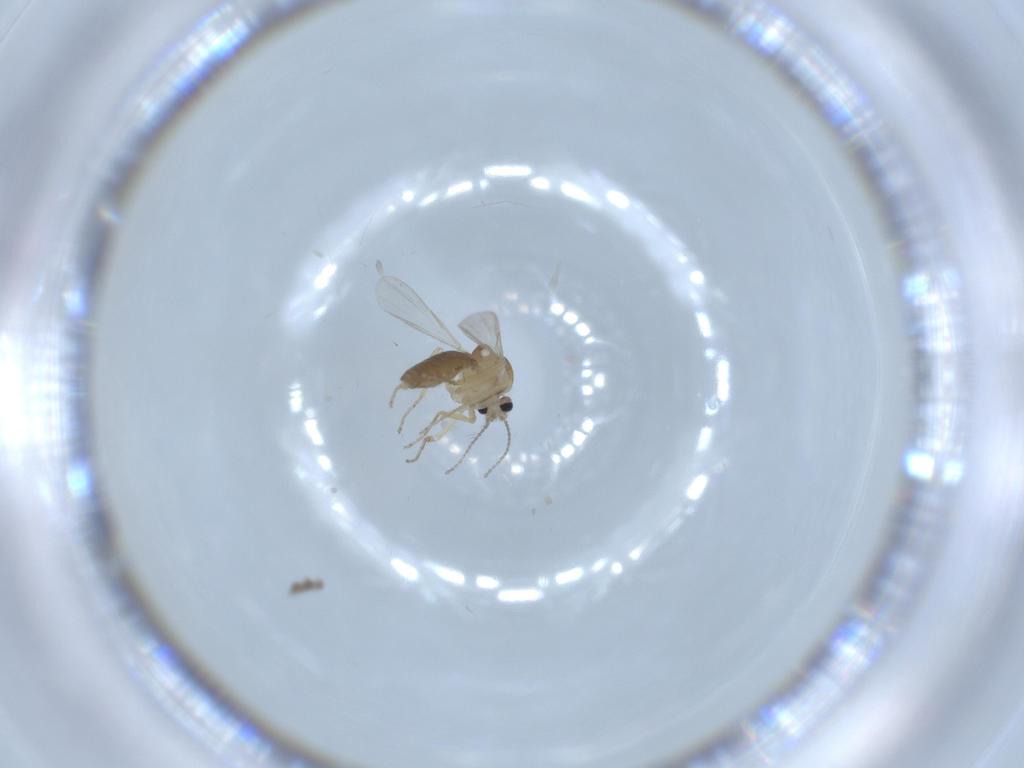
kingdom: Animalia
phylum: Arthropoda
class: Insecta
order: Diptera
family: Ceratopogonidae
